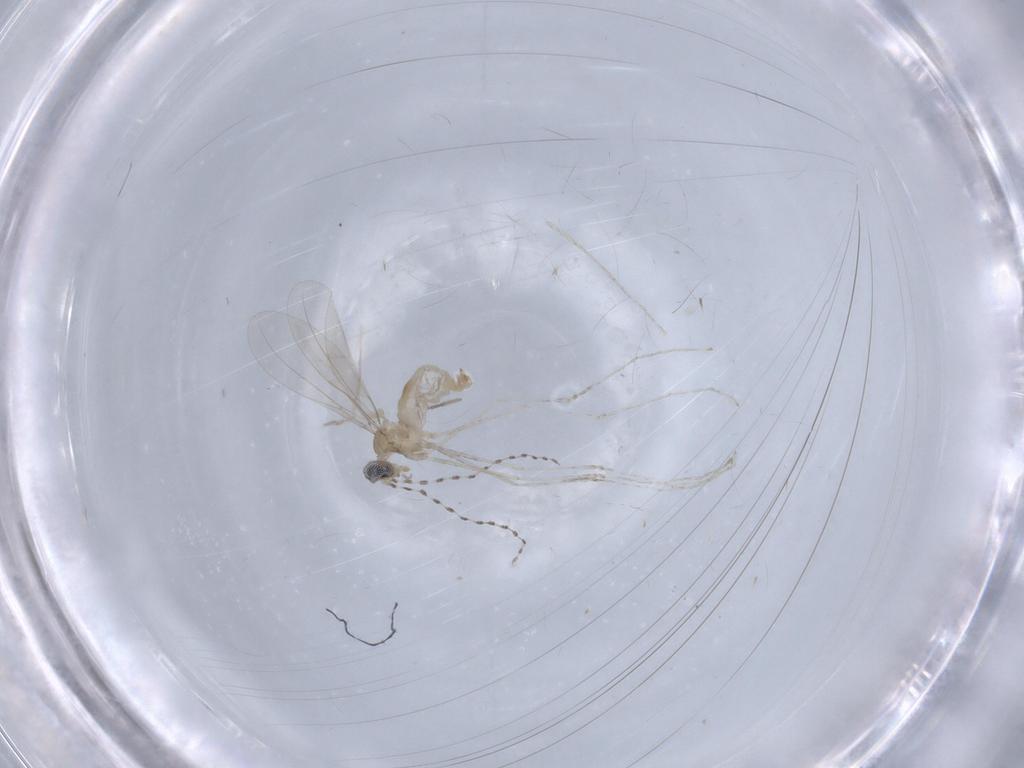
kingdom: Animalia
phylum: Arthropoda
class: Insecta
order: Diptera
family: Cecidomyiidae
